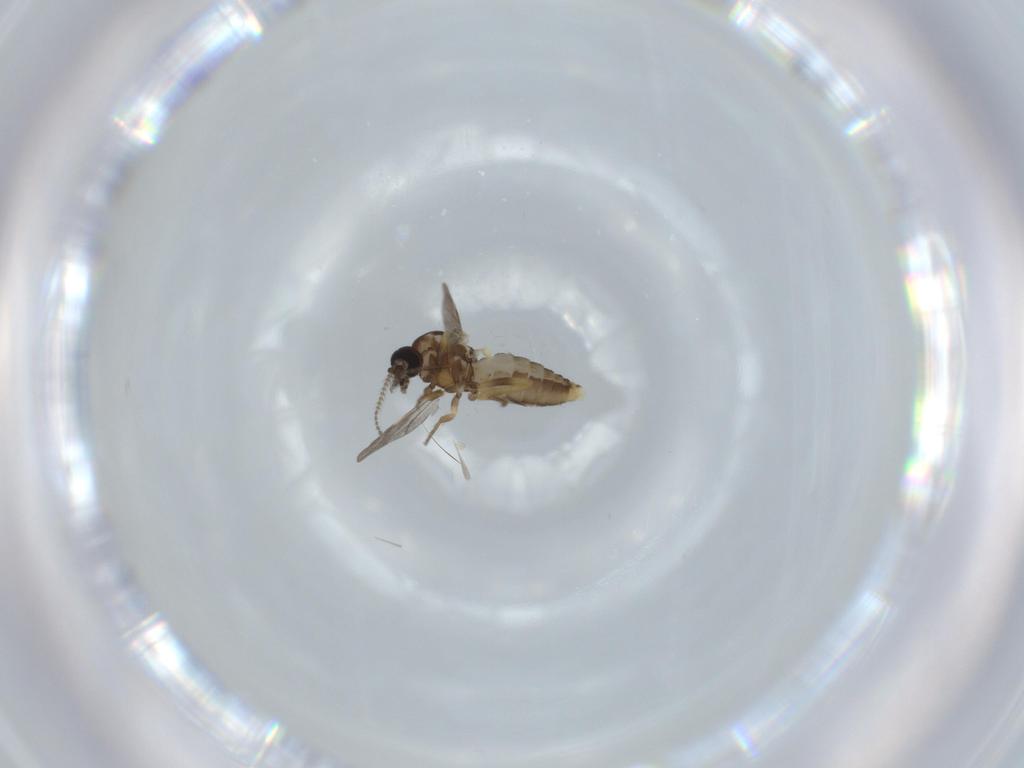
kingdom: Animalia
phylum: Arthropoda
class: Insecta
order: Diptera
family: Ceratopogonidae
